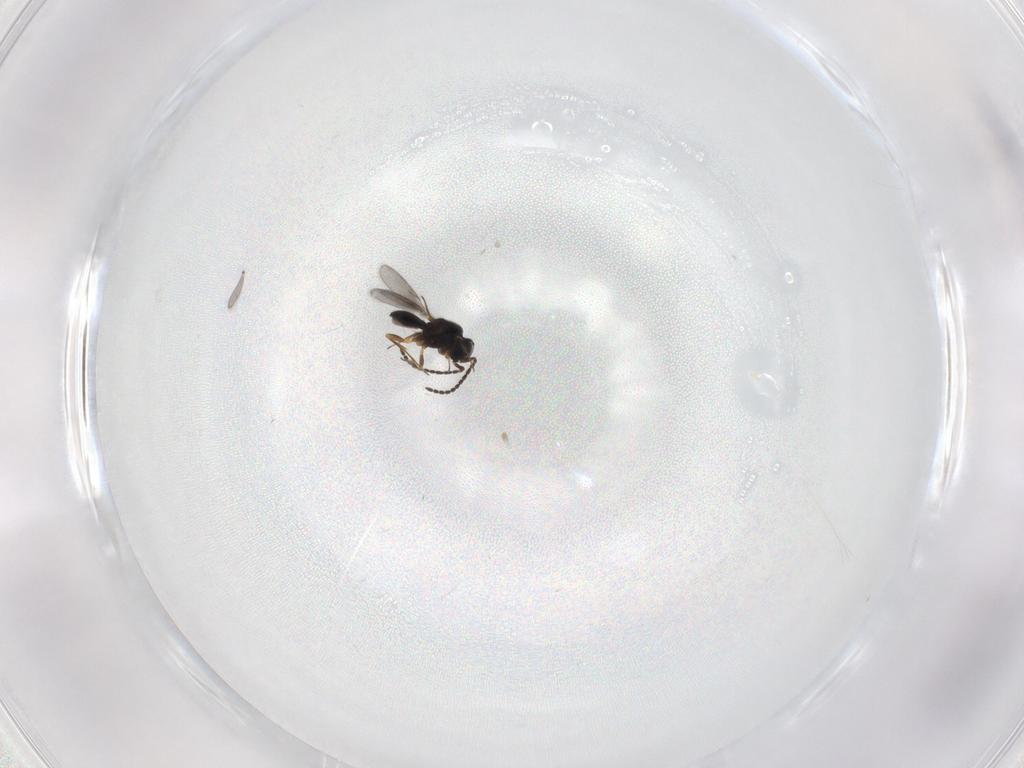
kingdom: Animalia
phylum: Arthropoda
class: Insecta
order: Hymenoptera
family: Scelionidae
